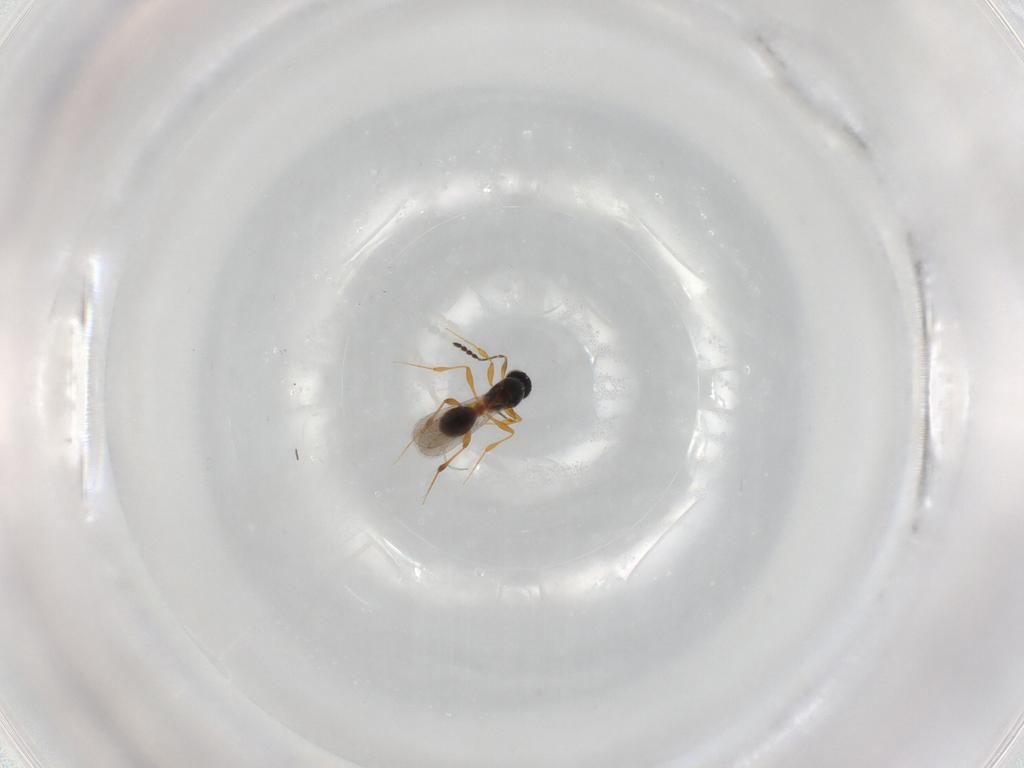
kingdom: Animalia
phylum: Arthropoda
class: Insecta
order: Hymenoptera
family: Platygastridae
